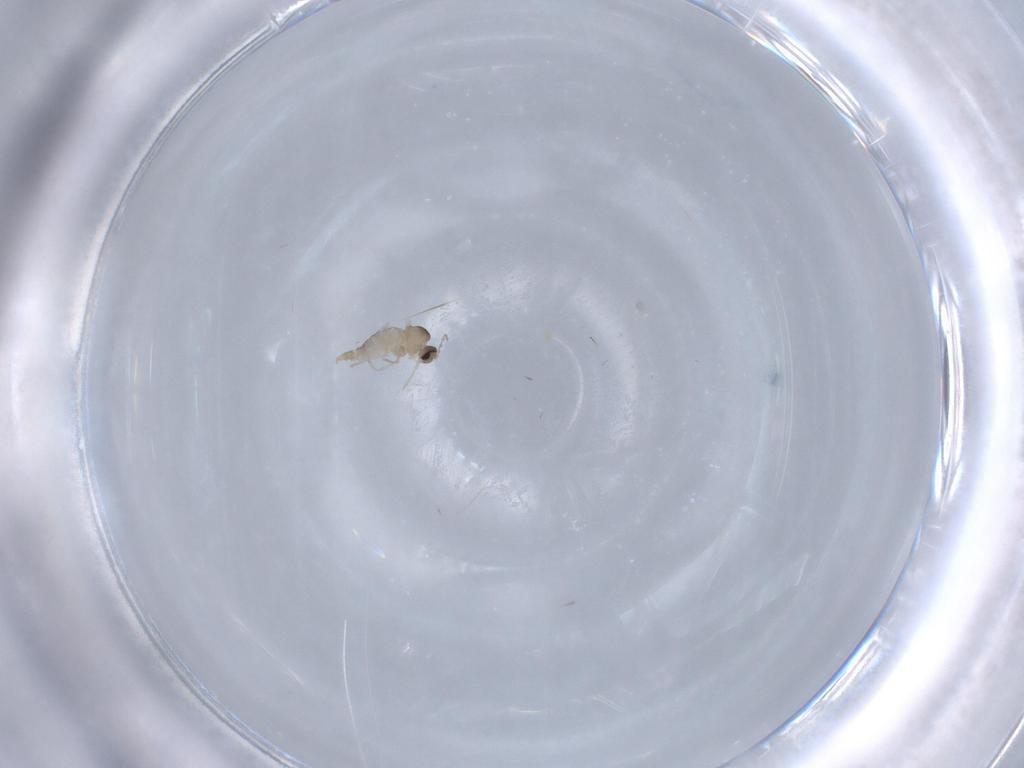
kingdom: Animalia
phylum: Arthropoda
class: Insecta
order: Diptera
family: Cecidomyiidae
